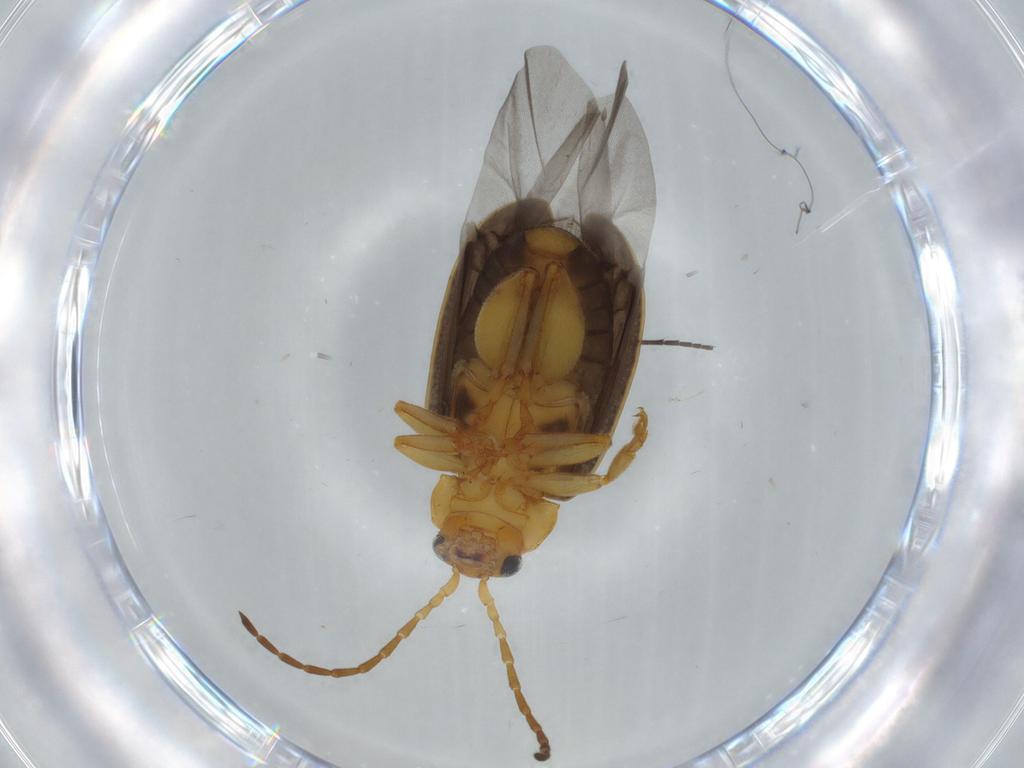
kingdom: Animalia
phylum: Arthropoda
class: Insecta
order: Coleoptera
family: Chrysomelidae
